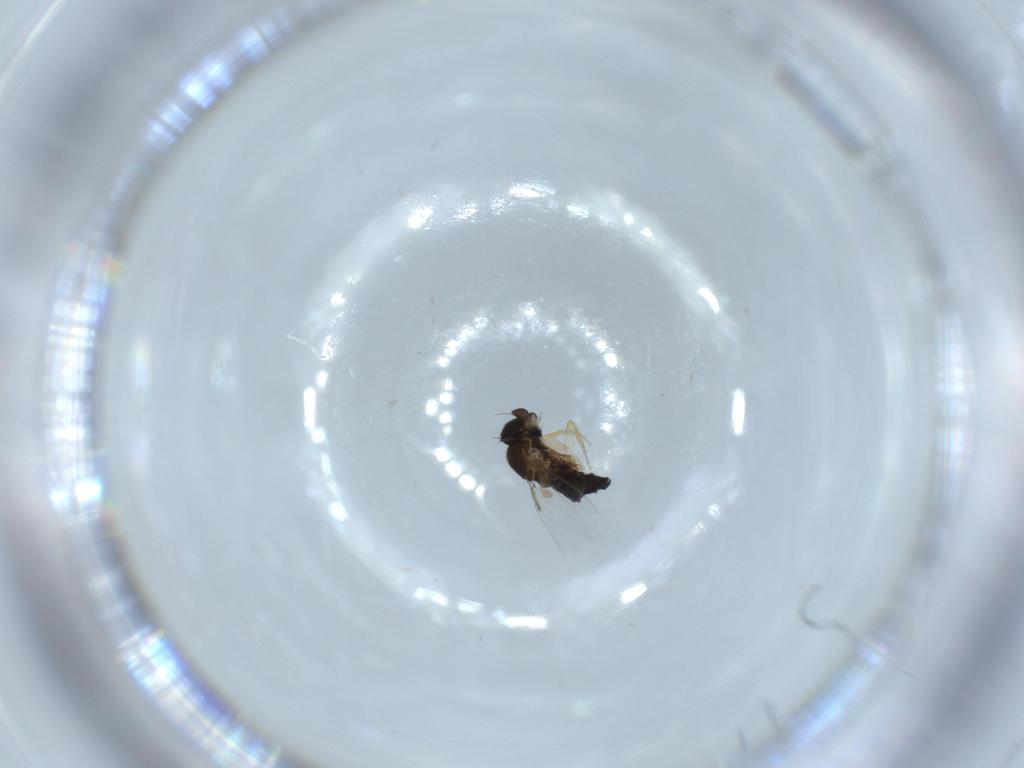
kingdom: Animalia
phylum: Arthropoda
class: Insecta
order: Diptera
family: Phoridae
